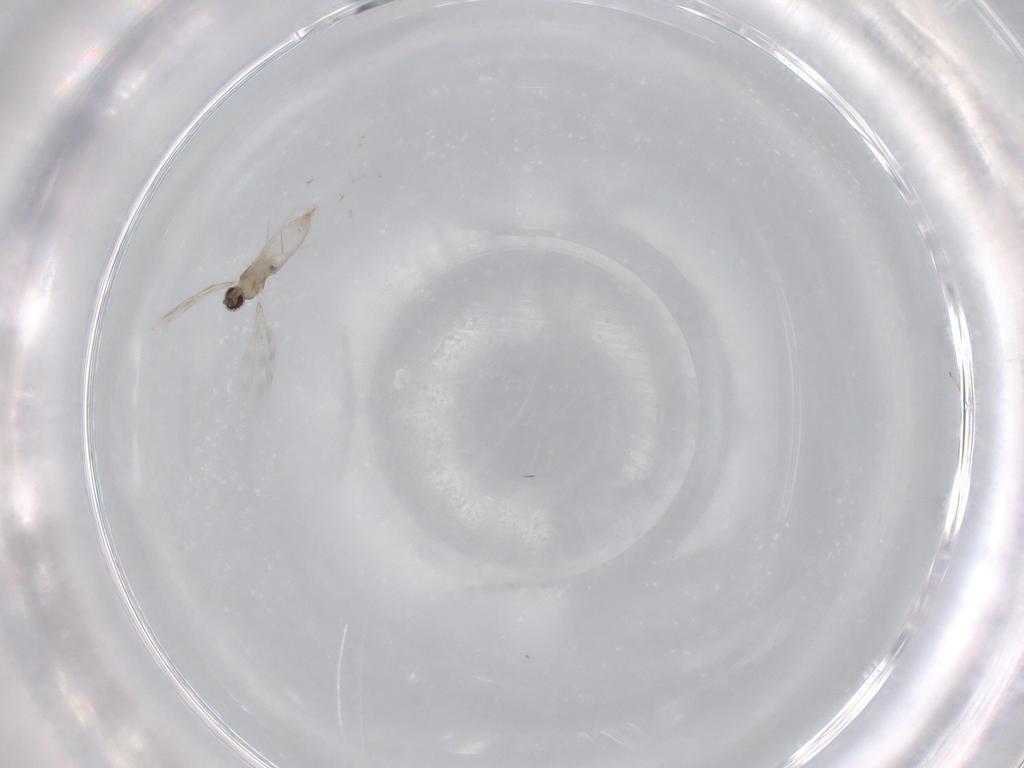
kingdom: Animalia
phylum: Arthropoda
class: Insecta
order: Diptera
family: Cecidomyiidae
